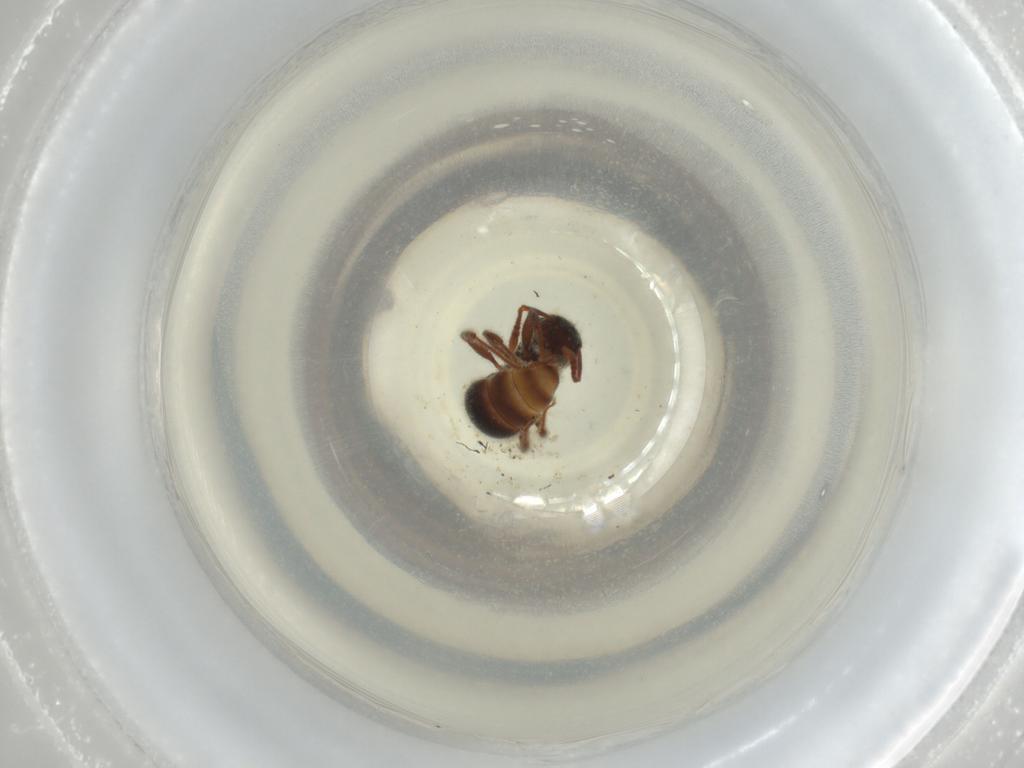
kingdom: Animalia
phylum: Arthropoda
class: Insecta
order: Hymenoptera
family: Formicidae
